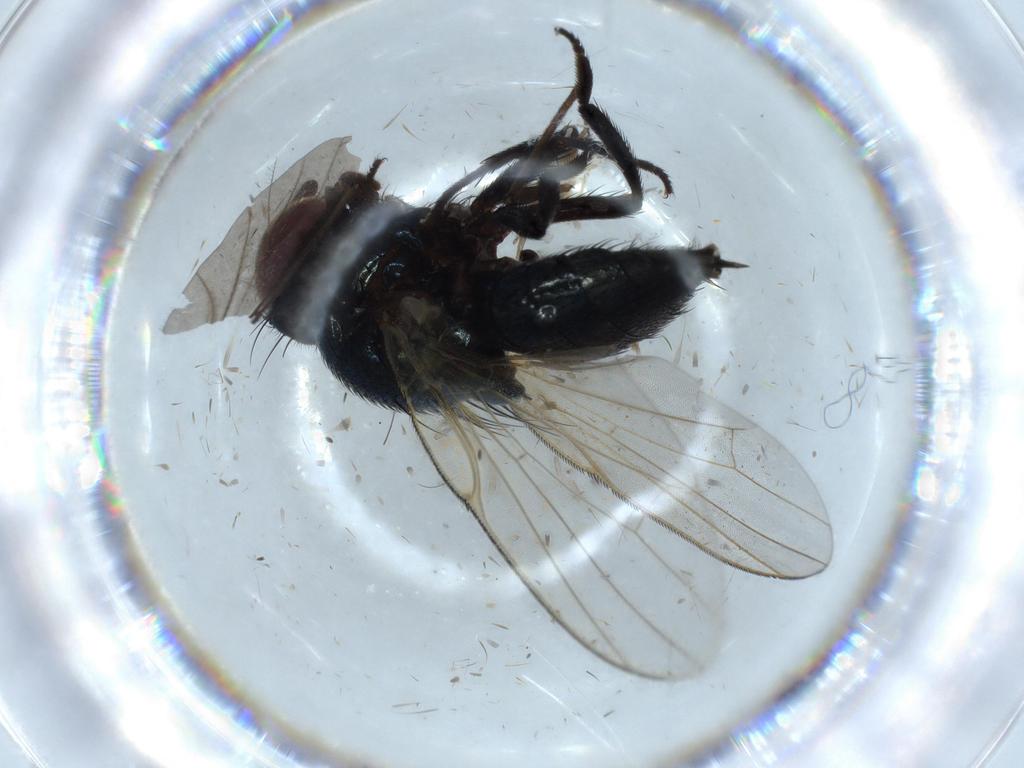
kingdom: Animalia
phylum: Arthropoda
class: Insecta
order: Diptera
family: Cecidomyiidae
